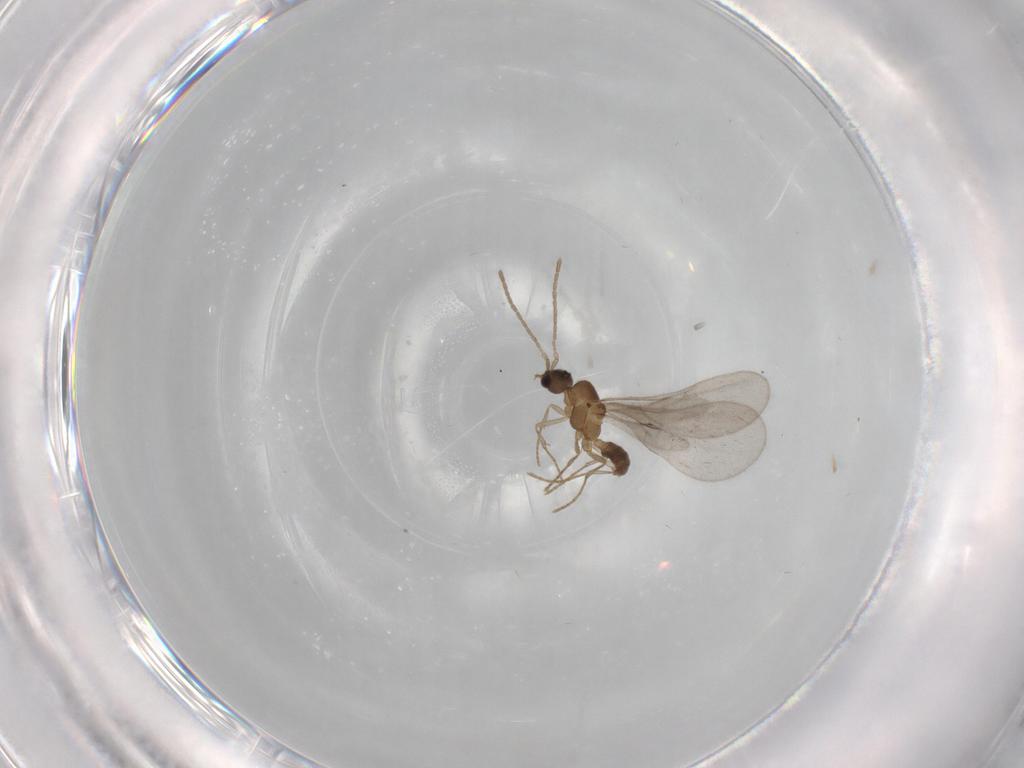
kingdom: Animalia
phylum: Arthropoda
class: Insecta
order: Hymenoptera
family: Formicidae
